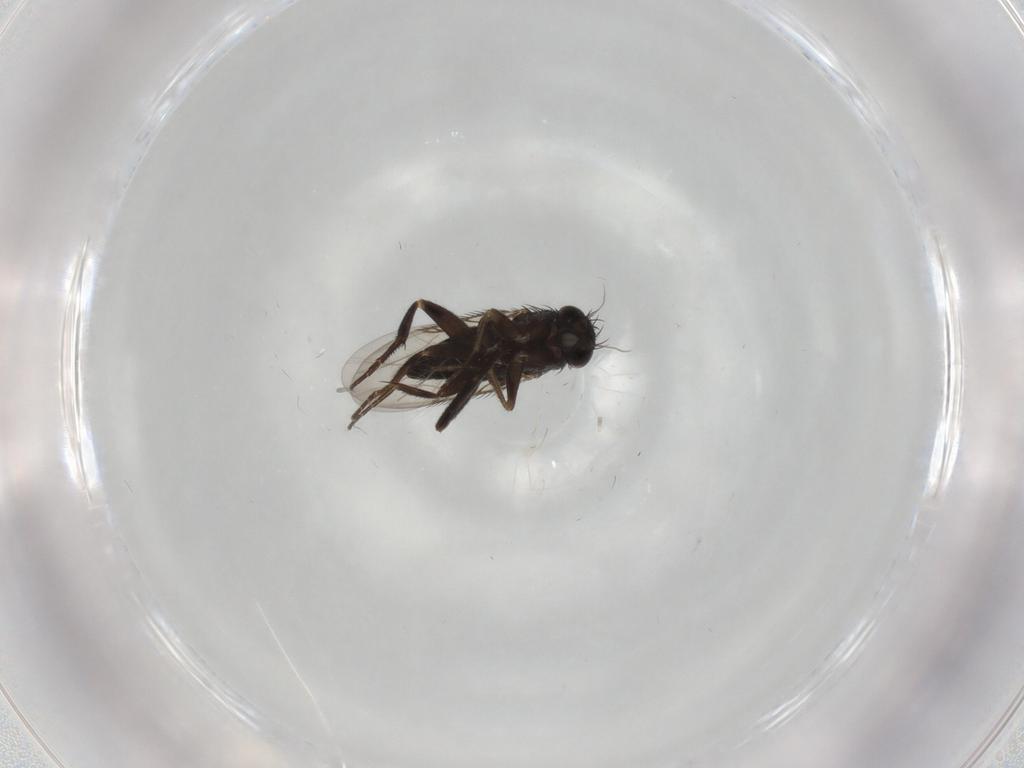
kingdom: Animalia
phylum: Arthropoda
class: Insecta
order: Diptera
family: Phoridae
